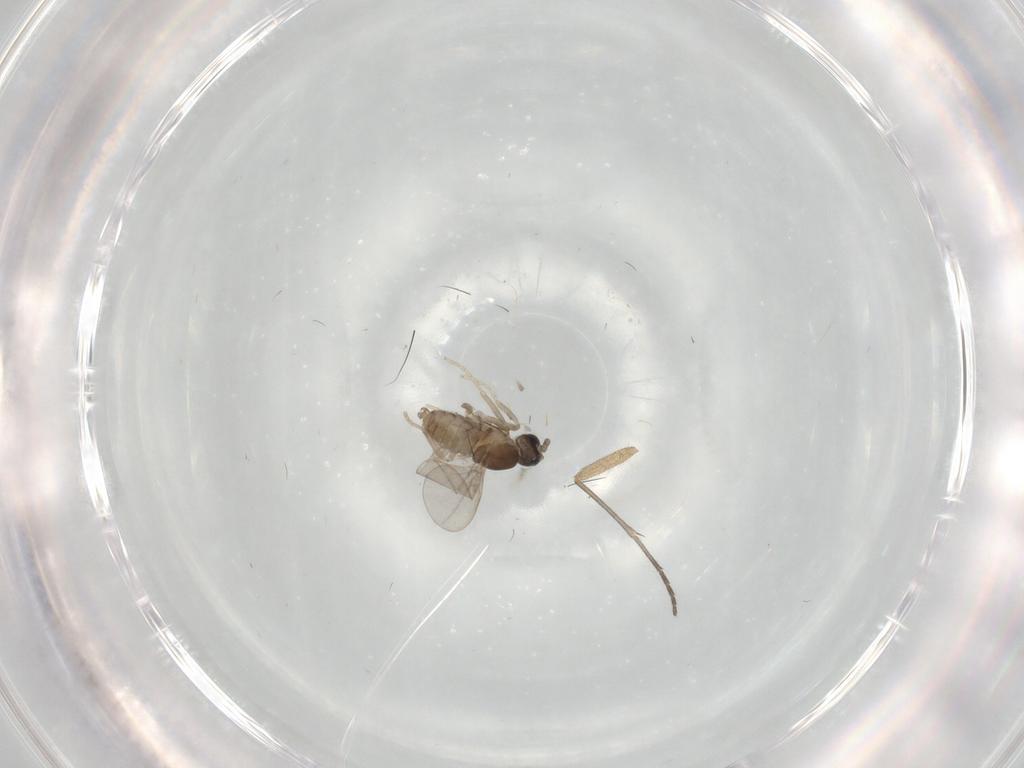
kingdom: Animalia
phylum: Arthropoda
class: Insecta
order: Diptera
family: Cecidomyiidae
